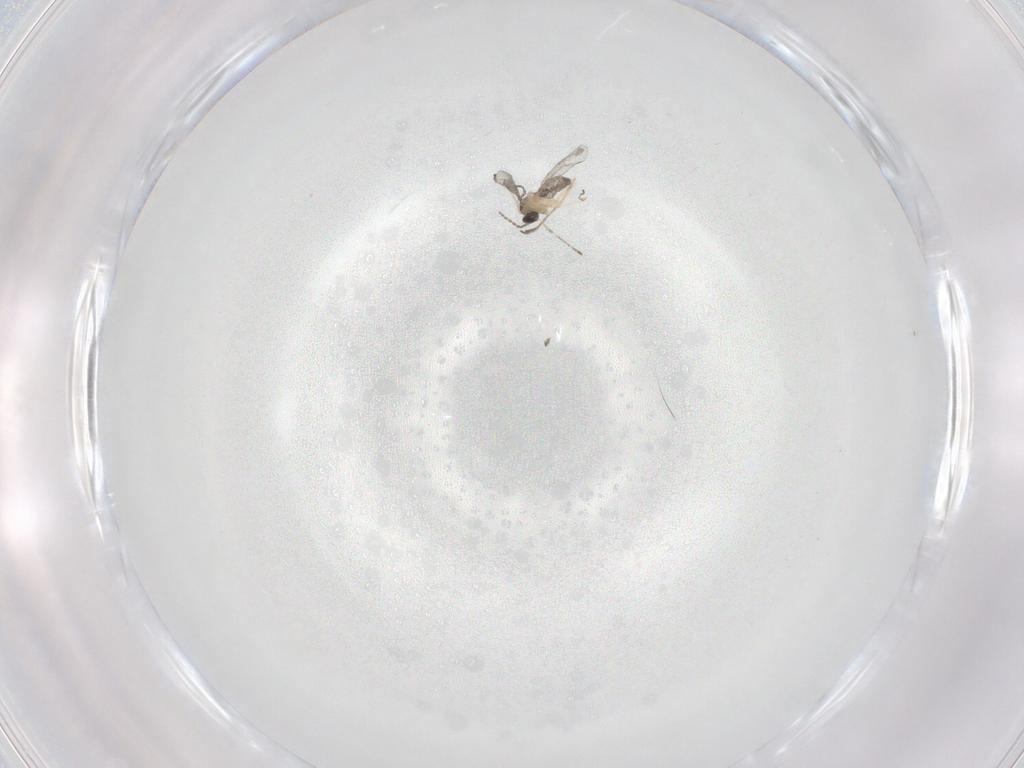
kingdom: Animalia
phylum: Arthropoda
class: Insecta
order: Diptera
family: Cecidomyiidae
